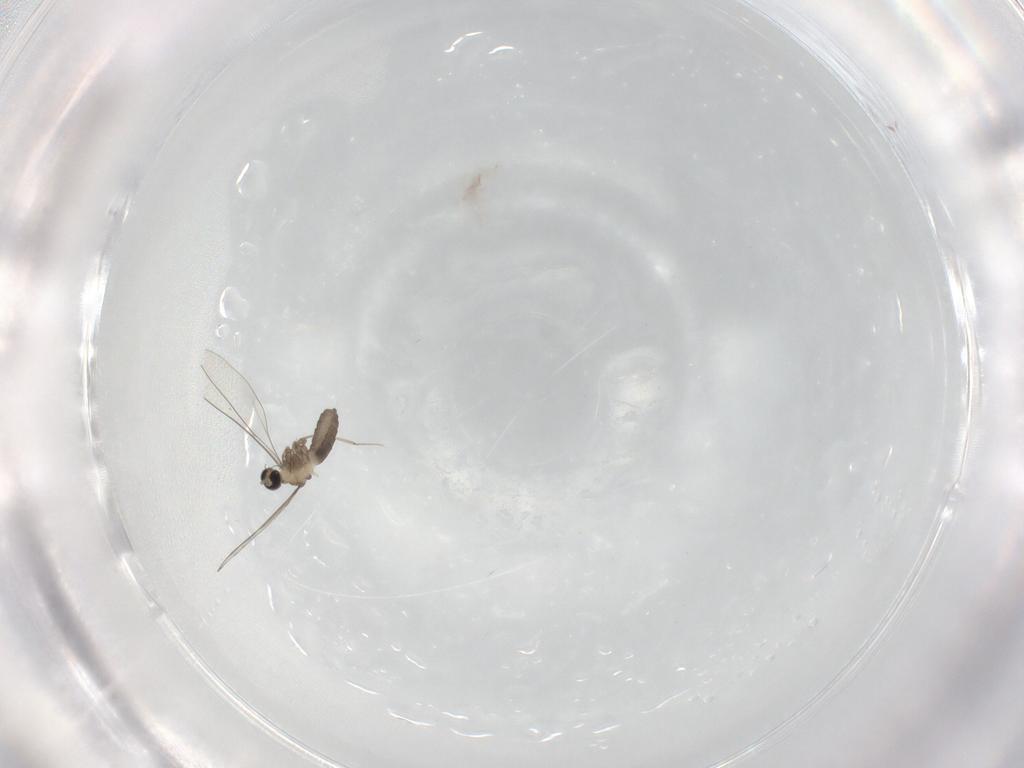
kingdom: Animalia
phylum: Arthropoda
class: Insecta
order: Diptera
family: Cecidomyiidae
